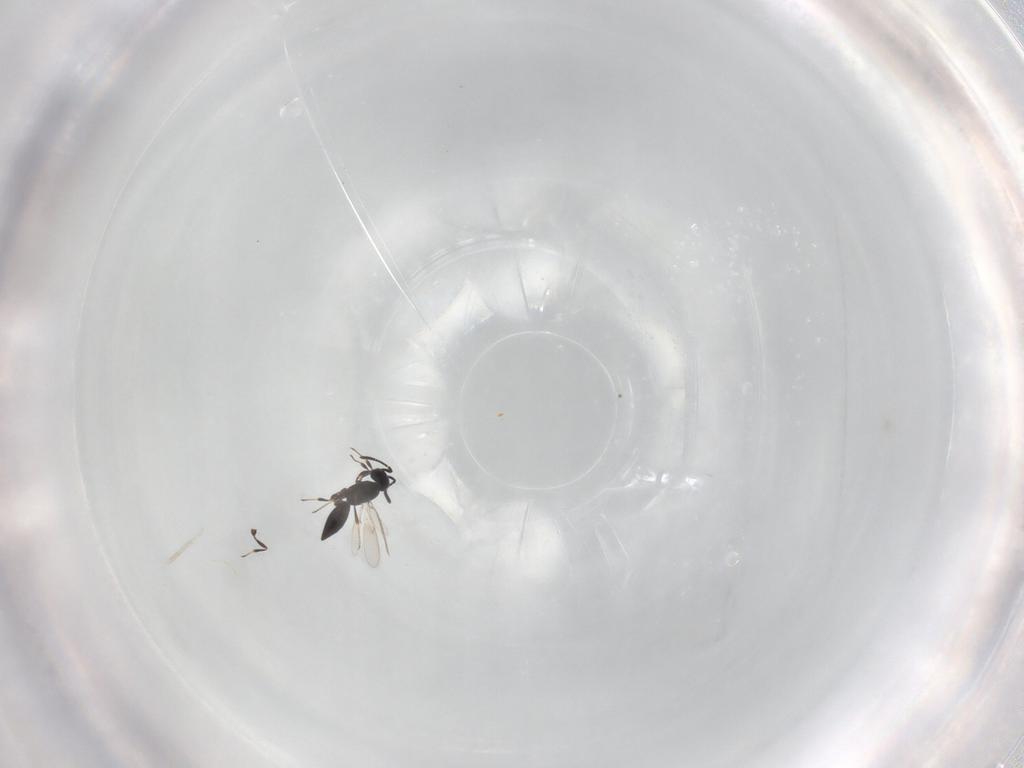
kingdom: Animalia
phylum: Arthropoda
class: Insecta
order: Hymenoptera
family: Scelionidae
